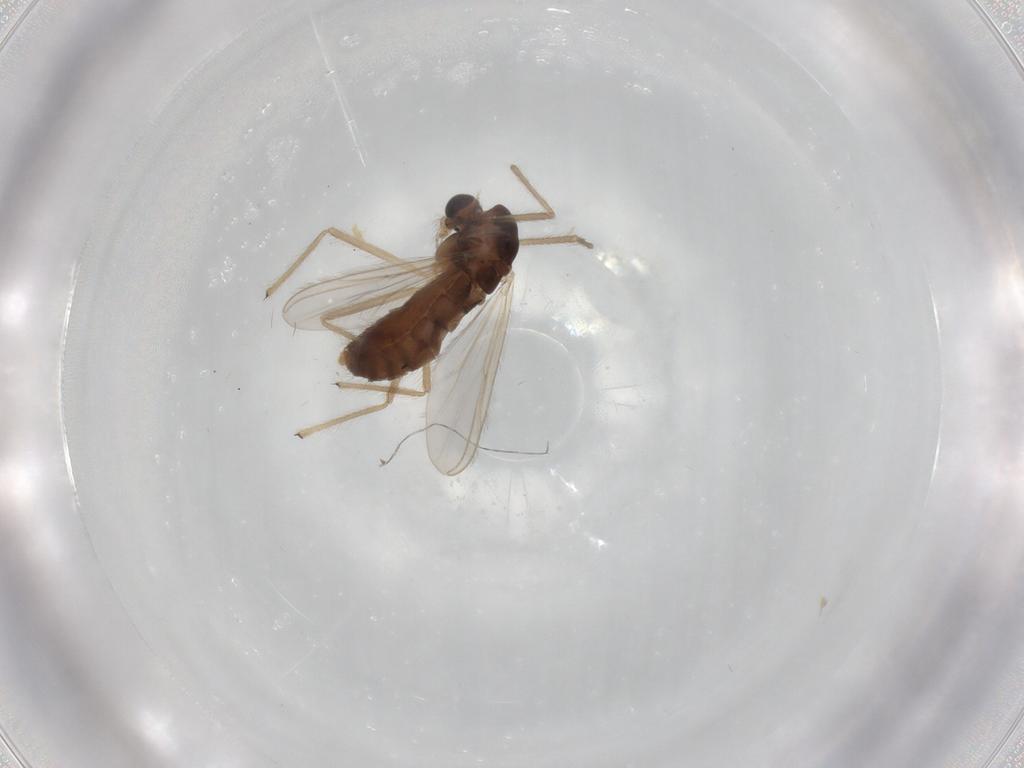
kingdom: Animalia
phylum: Arthropoda
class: Insecta
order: Diptera
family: Chironomidae
